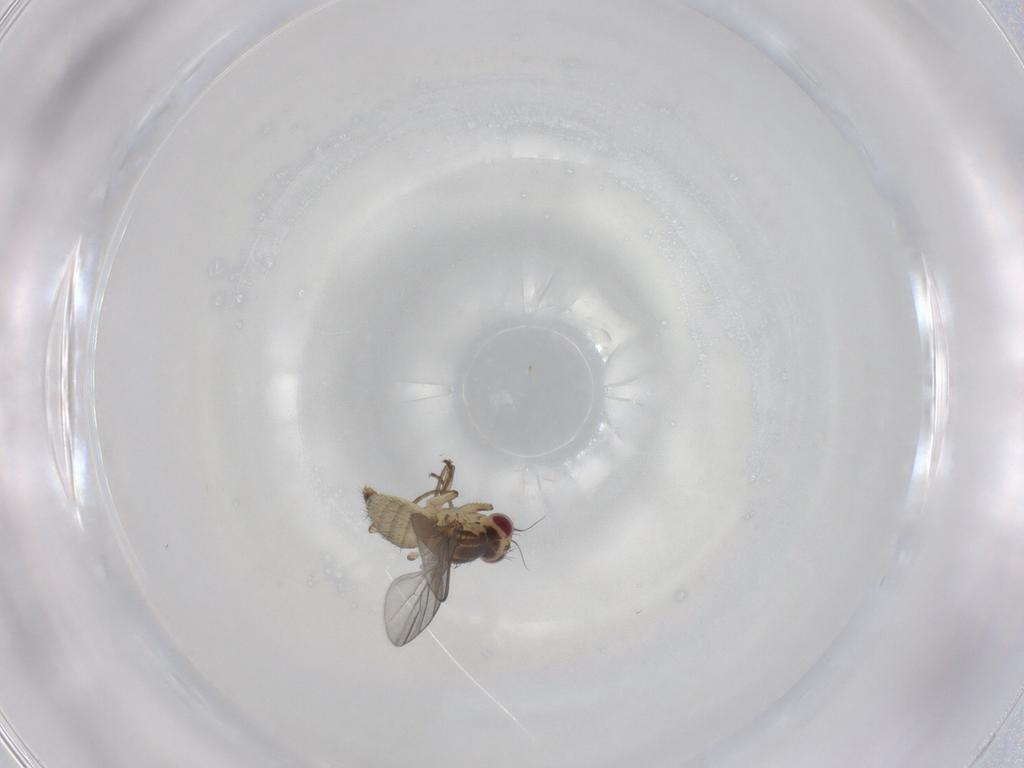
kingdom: Animalia
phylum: Arthropoda
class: Insecta
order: Diptera
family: Agromyzidae
